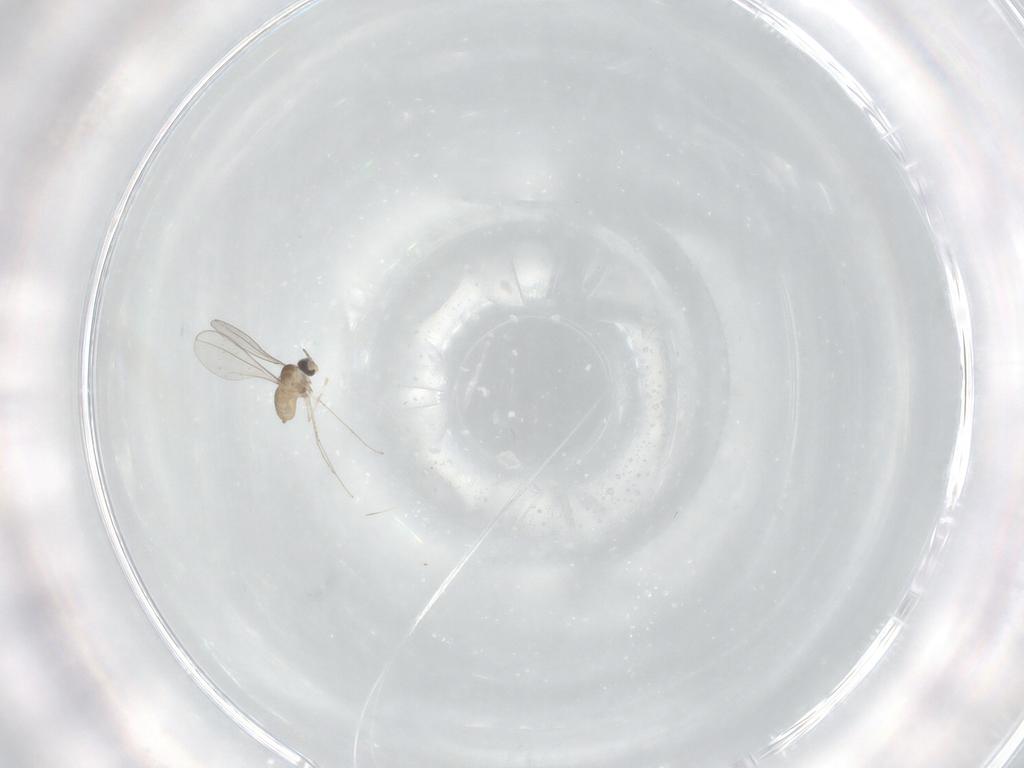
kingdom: Animalia
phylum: Arthropoda
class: Insecta
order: Diptera
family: Cecidomyiidae
